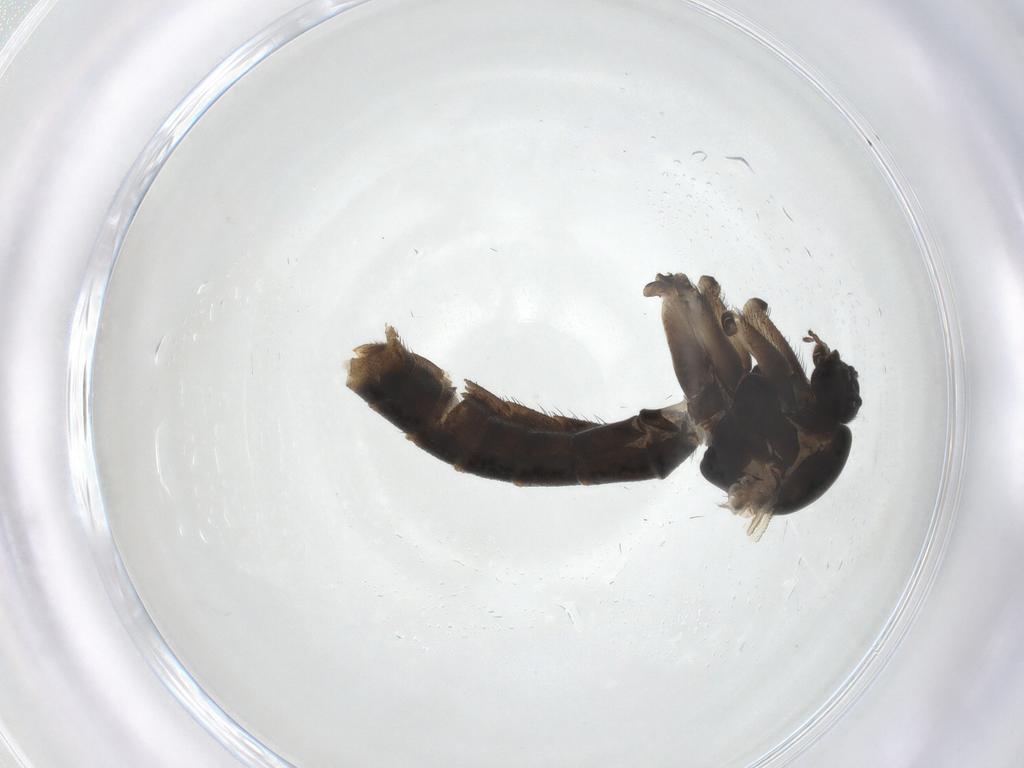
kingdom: Animalia
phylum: Arthropoda
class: Insecta
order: Diptera
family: Keroplatidae
